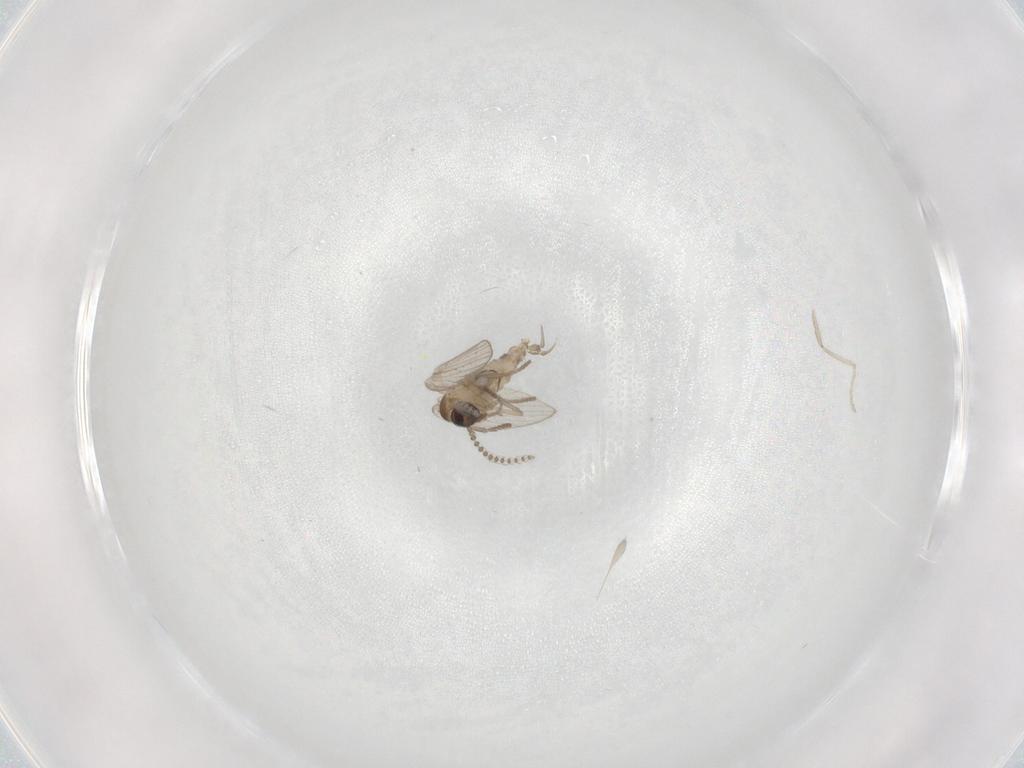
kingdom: Animalia
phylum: Arthropoda
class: Insecta
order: Diptera
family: Psychodidae
